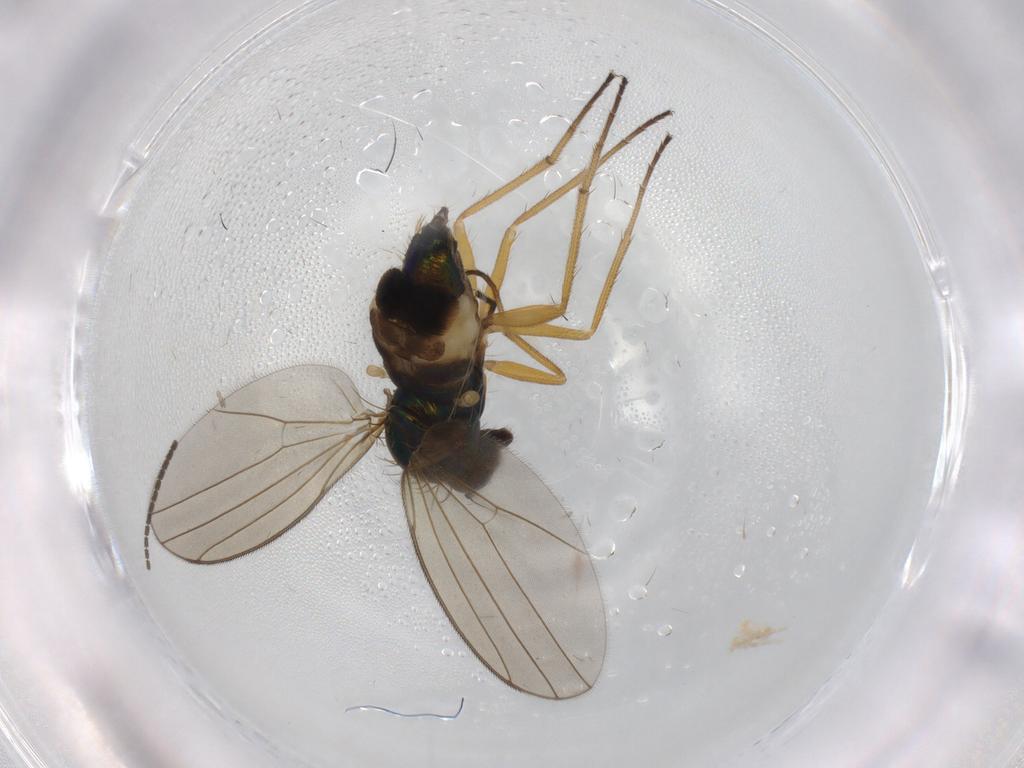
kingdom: Animalia
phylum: Arthropoda
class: Insecta
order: Diptera
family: Dolichopodidae
